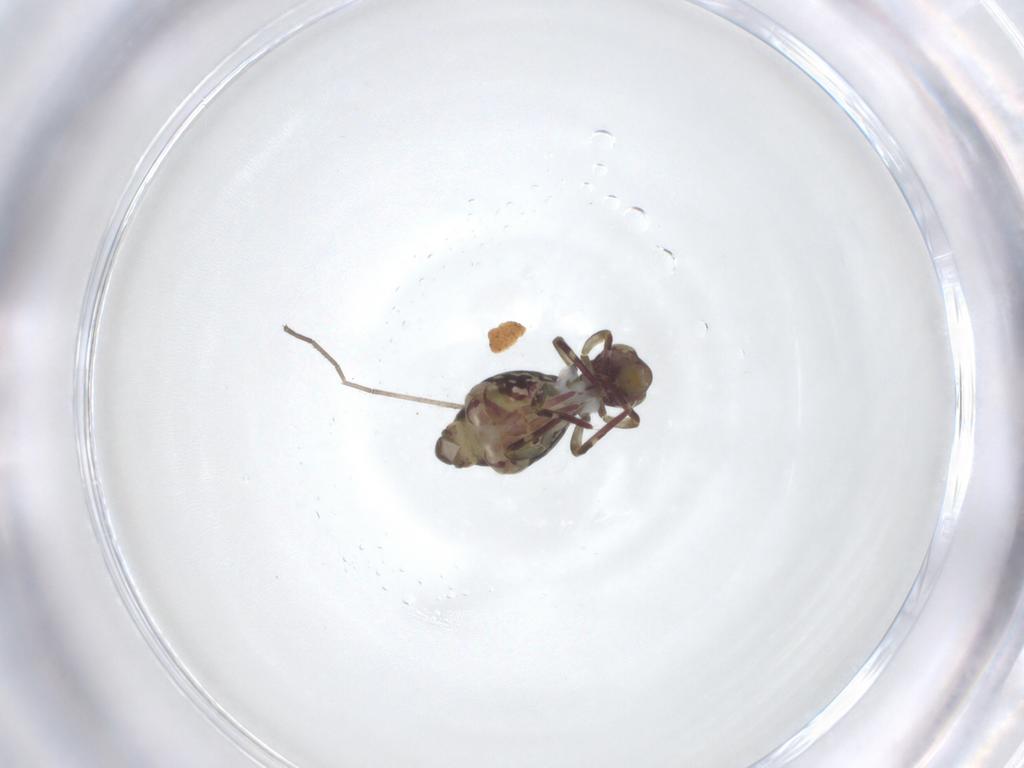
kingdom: Animalia
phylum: Arthropoda
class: Collembola
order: Symphypleona
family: Dicyrtomidae
